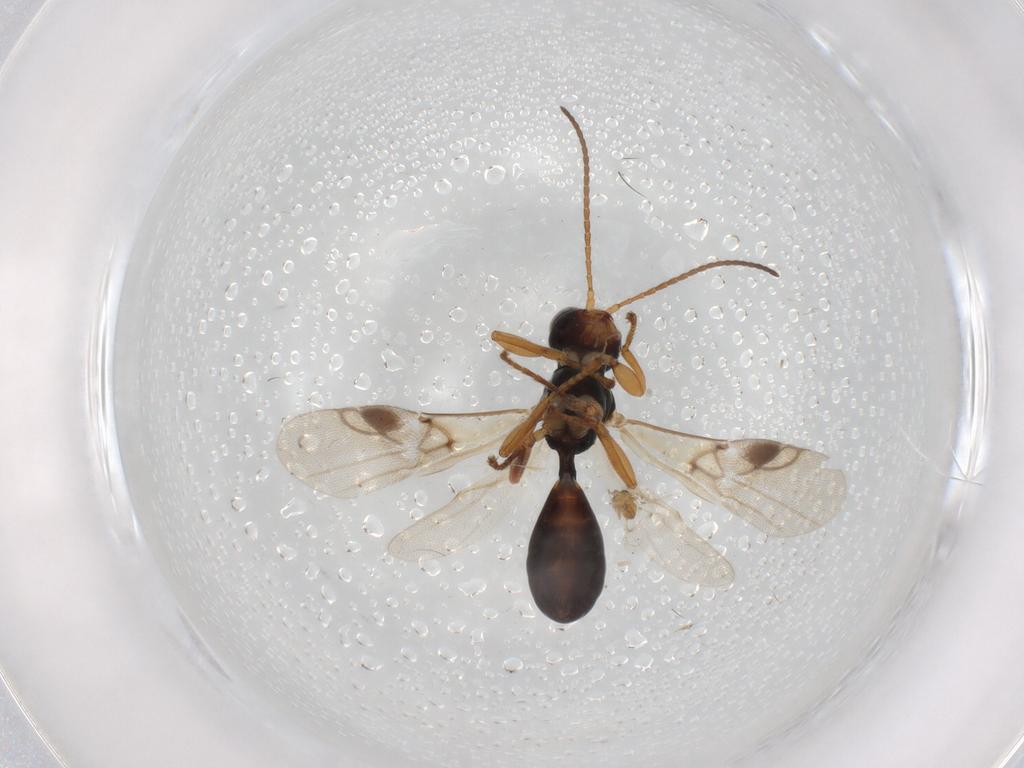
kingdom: Animalia
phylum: Arthropoda
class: Insecta
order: Hymenoptera
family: Braconidae
